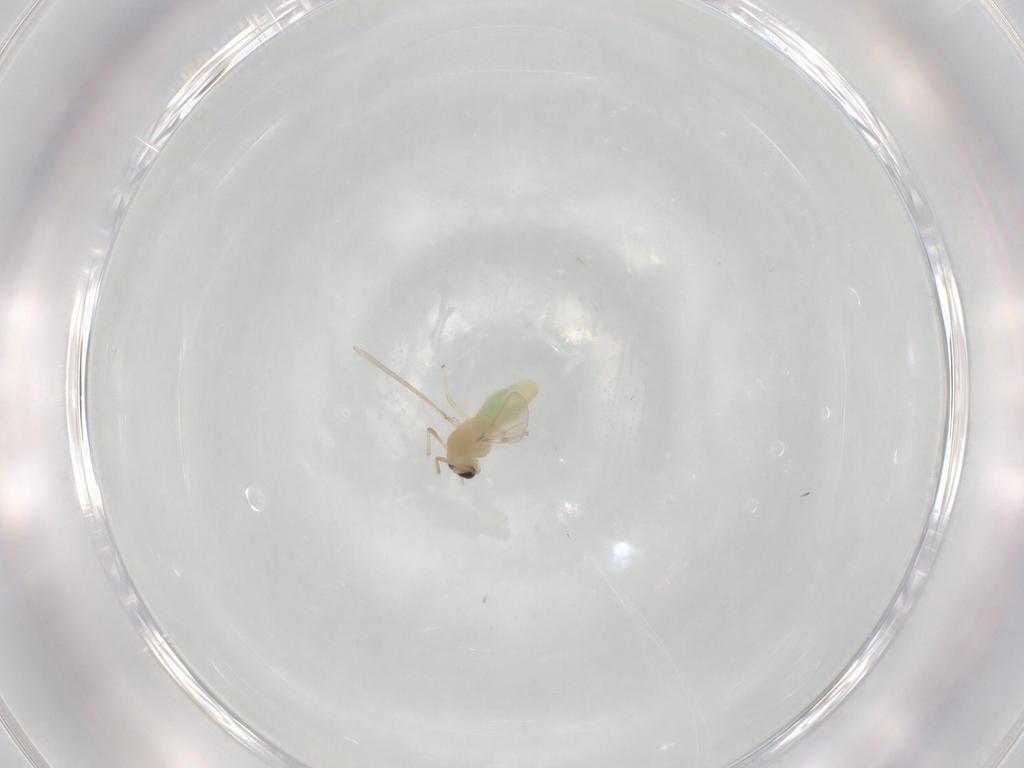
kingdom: Animalia
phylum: Arthropoda
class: Insecta
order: Diptera
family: Chironomidae
